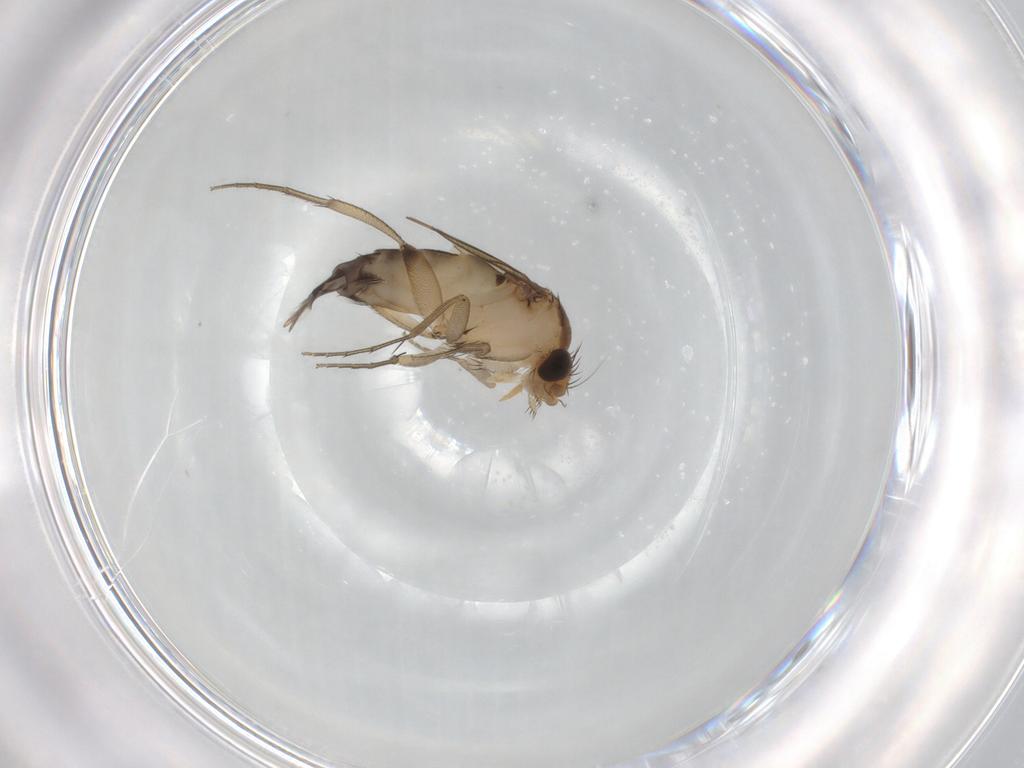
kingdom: Animalia
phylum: Arthropoda
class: Insecta
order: Diptera
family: Phoridae
